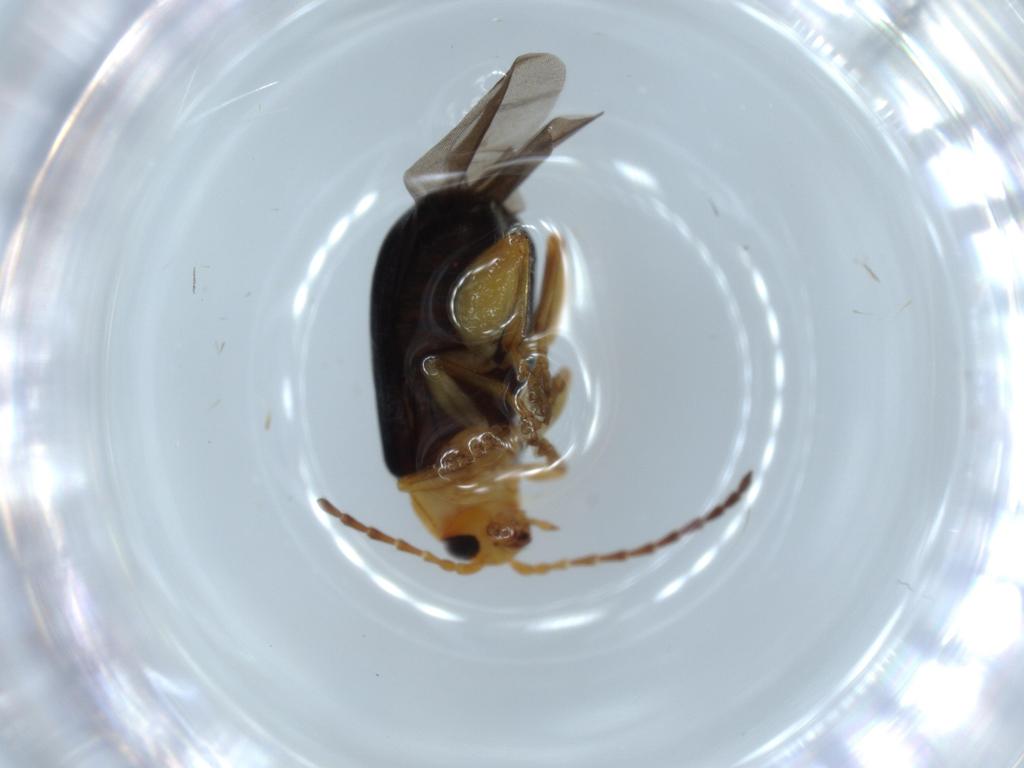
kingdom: Animalia
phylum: Arthropoda
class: Insecta
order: Coleoptera
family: Chrysomelidae
